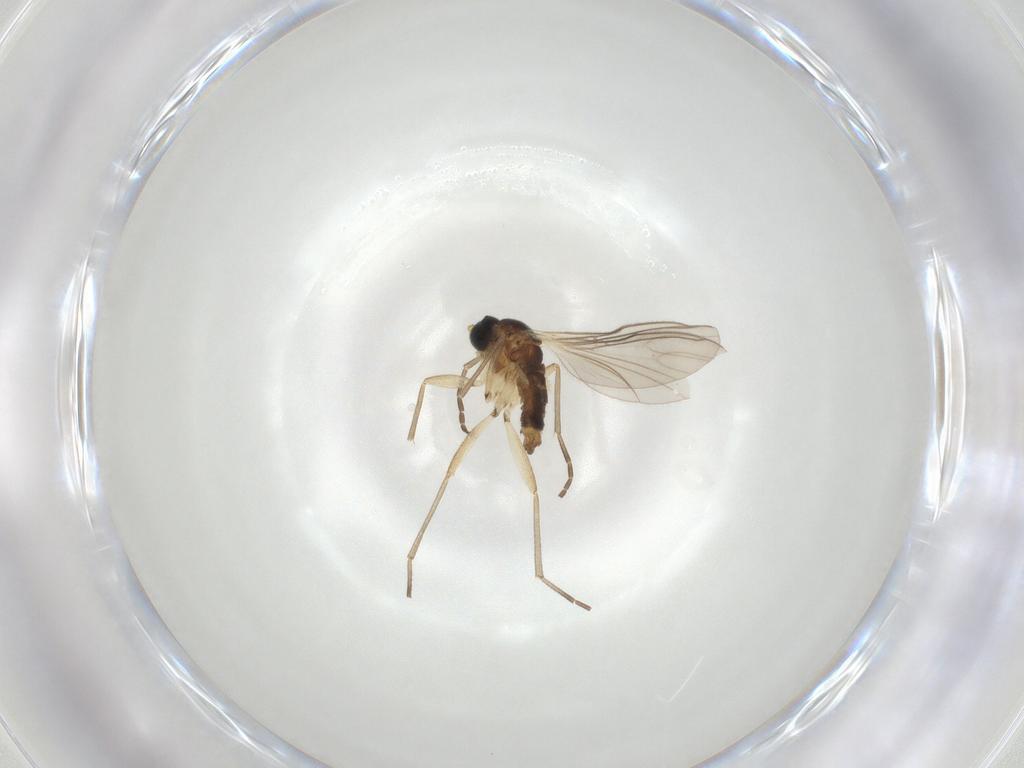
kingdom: Animalia
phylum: Arthropoda
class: Insecta
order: Diptera
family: Sciaridae
